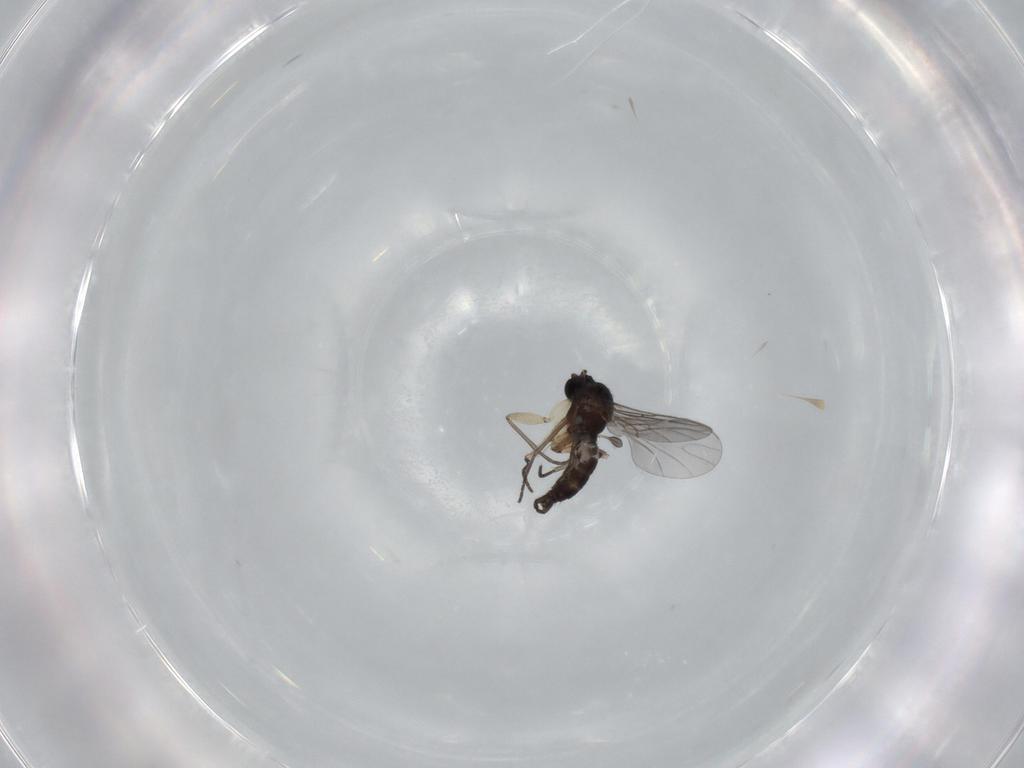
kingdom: Animalia
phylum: Arthropoda
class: Insecta
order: Diptera
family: Sciaridae
